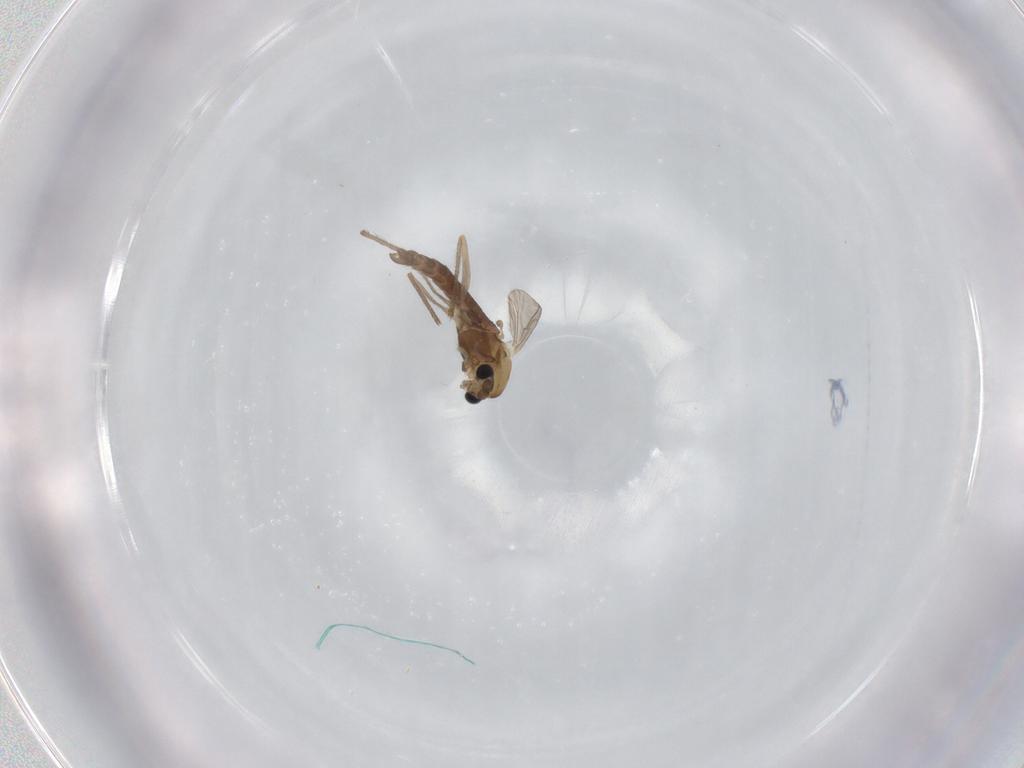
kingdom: Animalia
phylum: Arthropoda
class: Insecta
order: Diptera
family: Chironomidae
